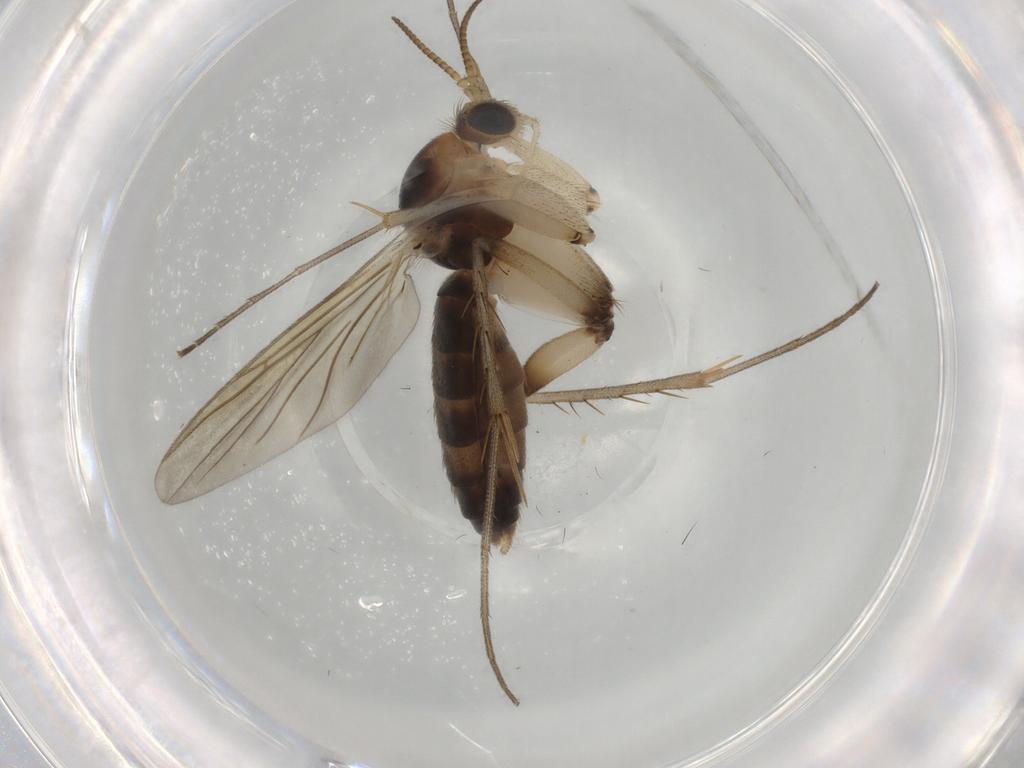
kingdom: Animalia
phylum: Arthropoda
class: Insecta
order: Diptera
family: Mycetophilidae
